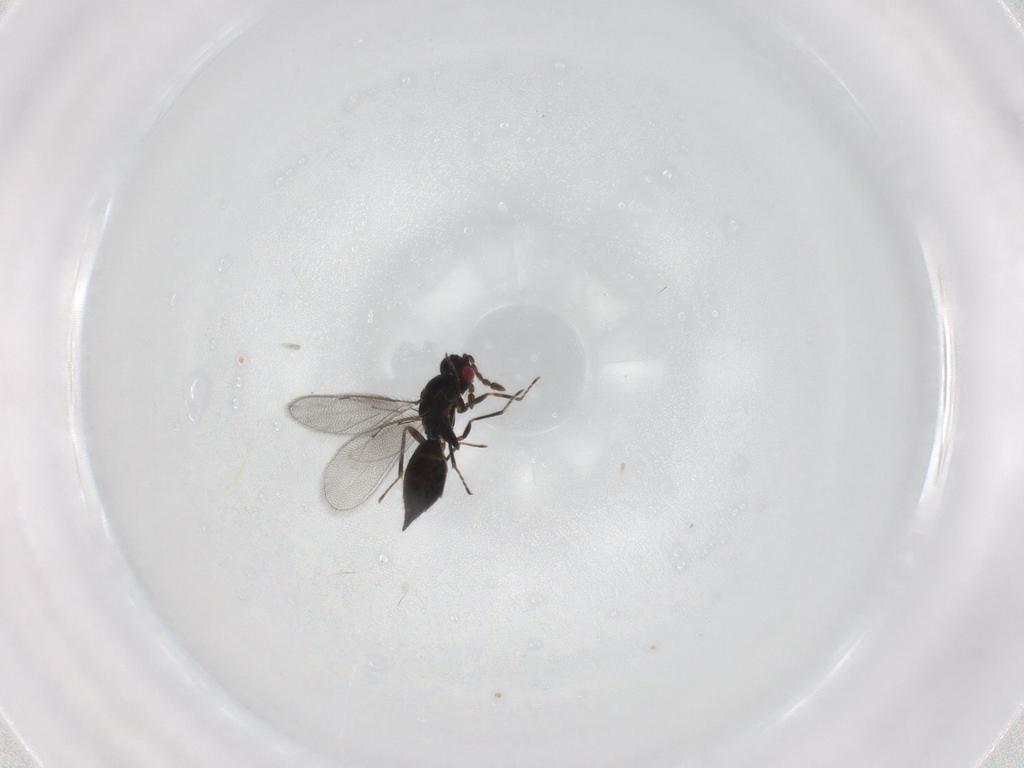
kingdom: Animalia
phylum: Arthropoda
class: Insecta
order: Hymenoptera
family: Eulophidae
